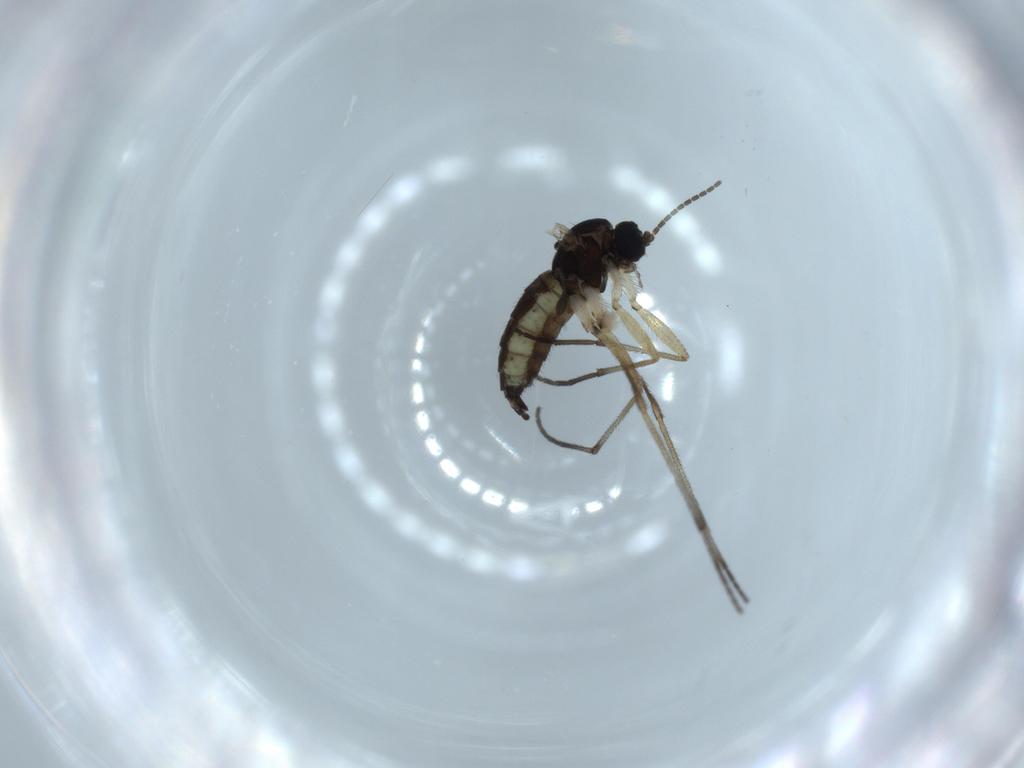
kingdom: Animalia
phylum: Arthropoda
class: Insecta
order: Diptera
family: Sciaridae
